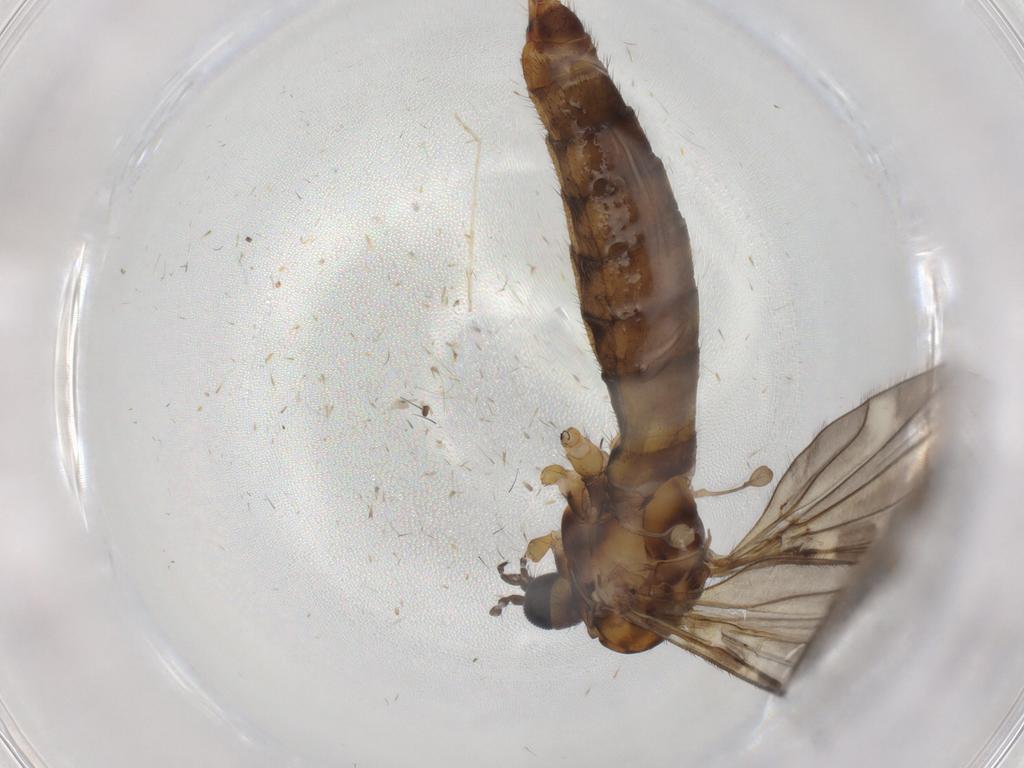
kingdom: Animalia
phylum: Arthropoda
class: Insecta
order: Diptera
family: Limoniidae
